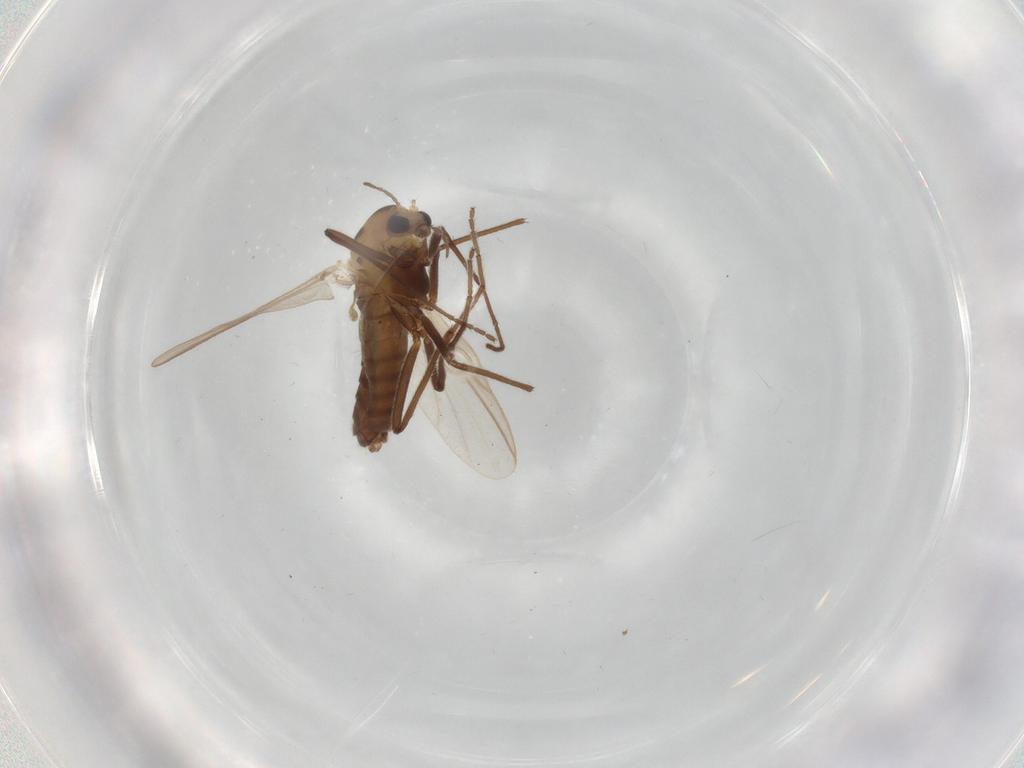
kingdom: Animalia
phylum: Arthropoda
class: Insecta
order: Diptera
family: Chironomidae
